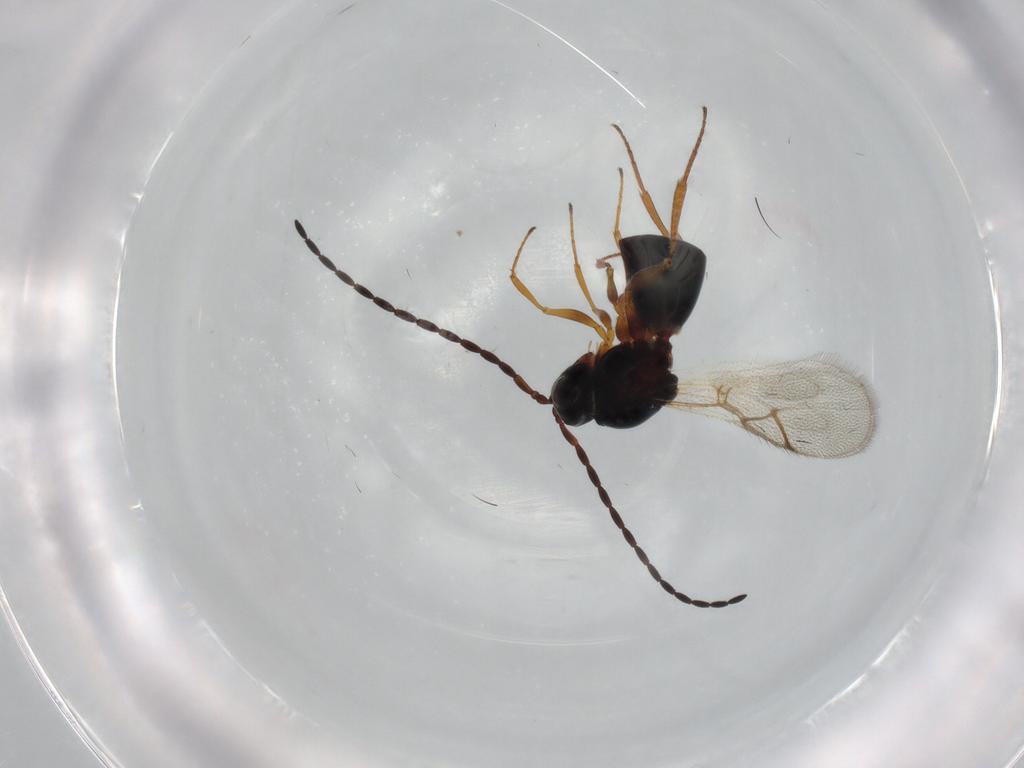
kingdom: Animalia
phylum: Arthropoda
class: Insecta
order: Hymenoptera
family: Figitidae
